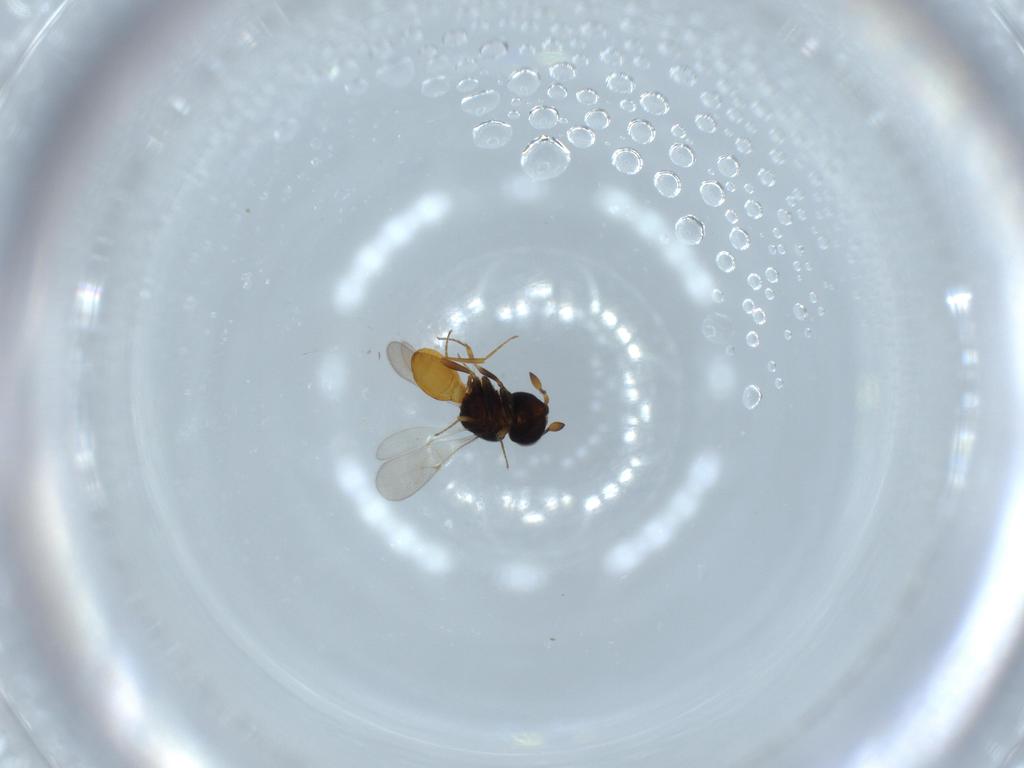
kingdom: Animalia
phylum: Arthropoda
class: Insecta
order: Hymenoptera
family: Scelionidae
